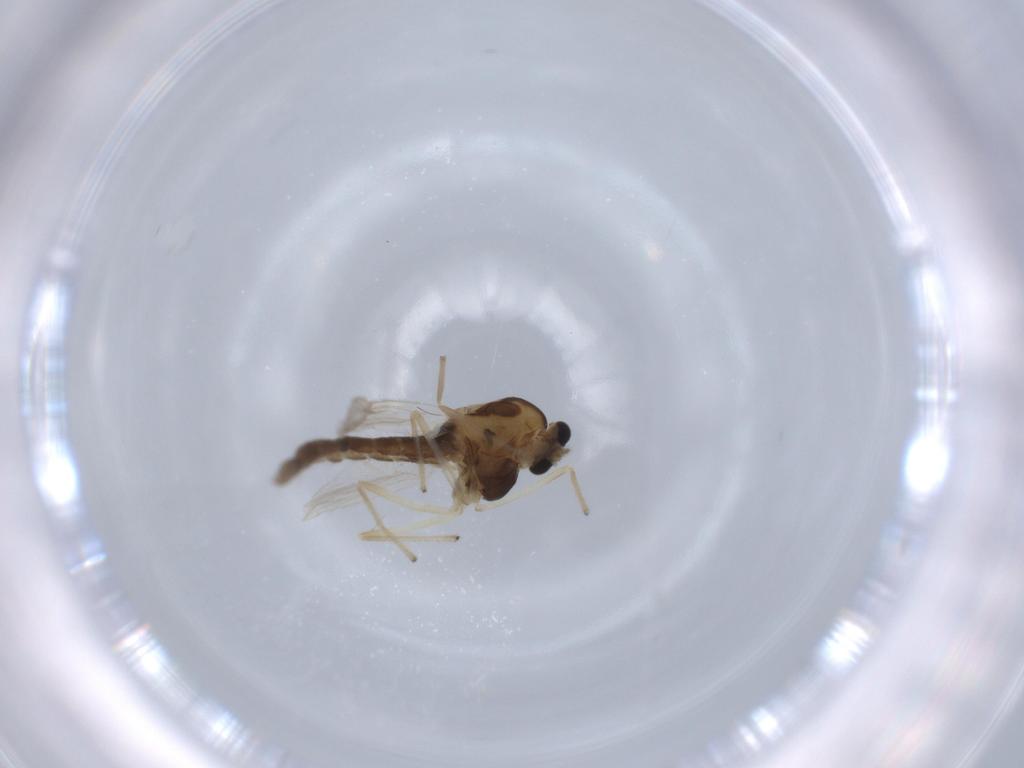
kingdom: Animalia
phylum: Arthropoda
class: Insecta
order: Diptera
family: Chironomidae
